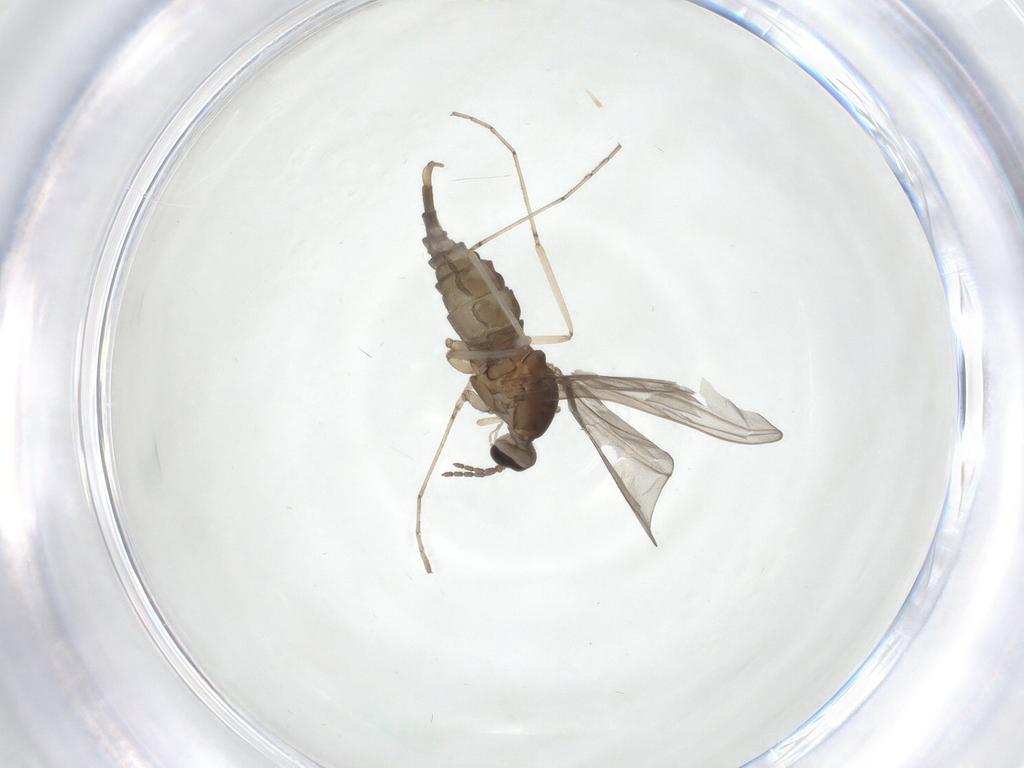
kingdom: Animalia
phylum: Arthropoda
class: Insecta
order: Diptera
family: Cecidomyiidae
